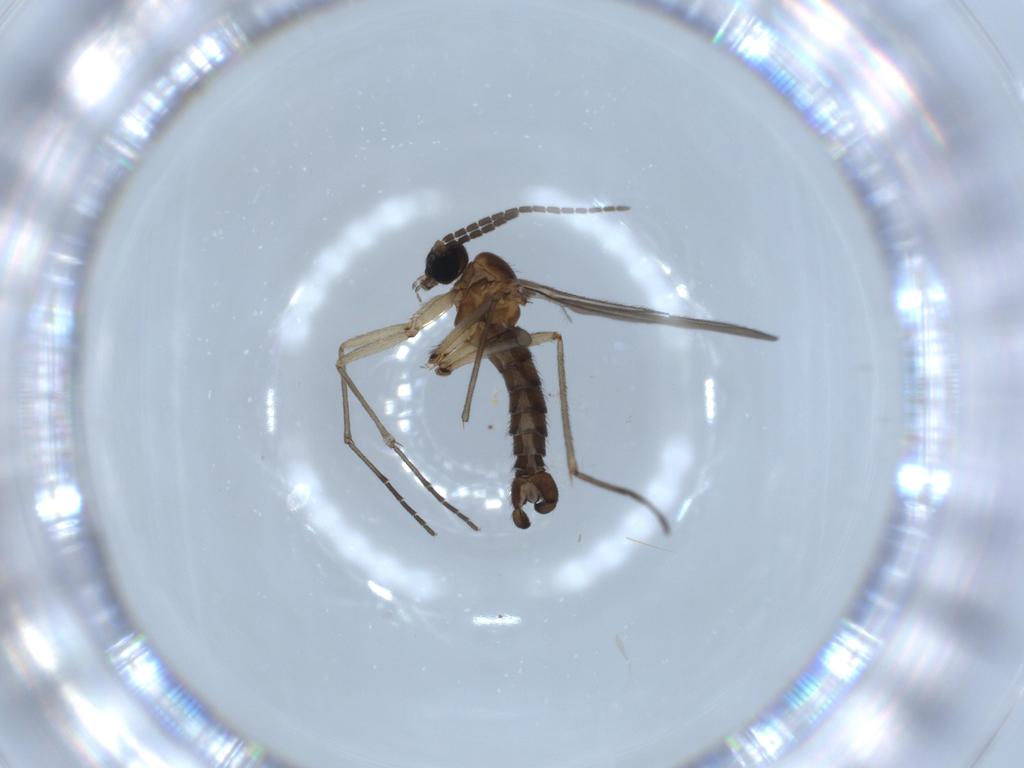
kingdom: Animalia
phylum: Arthropoda
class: Insecta
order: Diptera
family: Sciaridae
